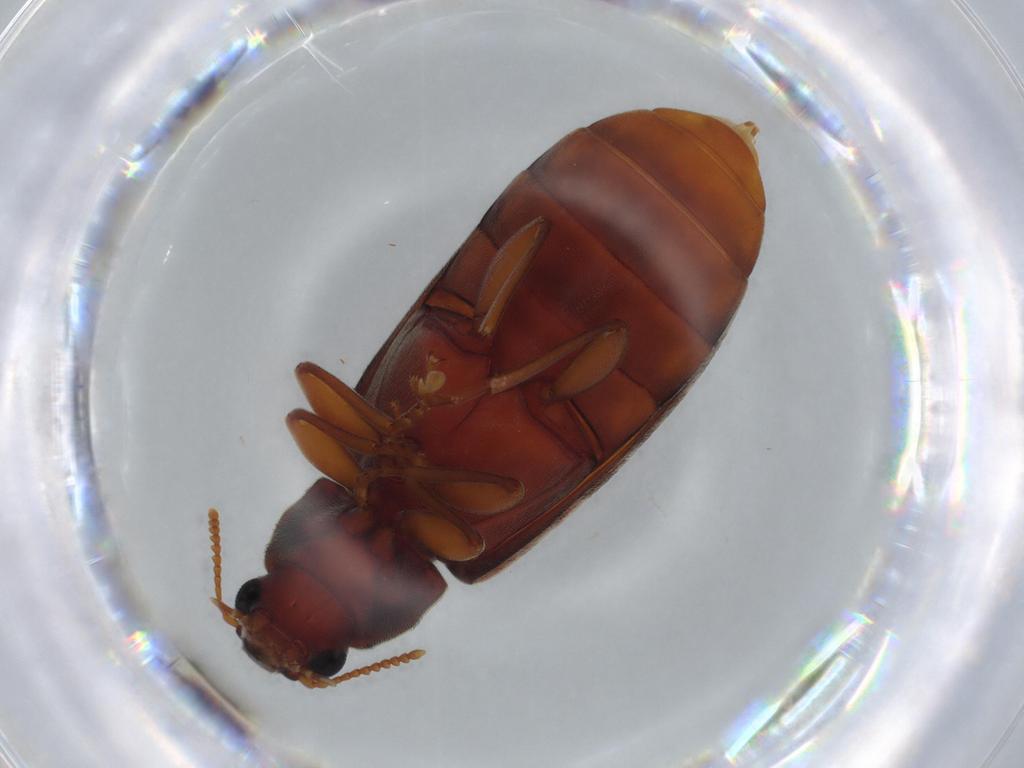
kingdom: Animalia
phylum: Arthropoda
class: Insecta
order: Coleoptera
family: Mycteridae
